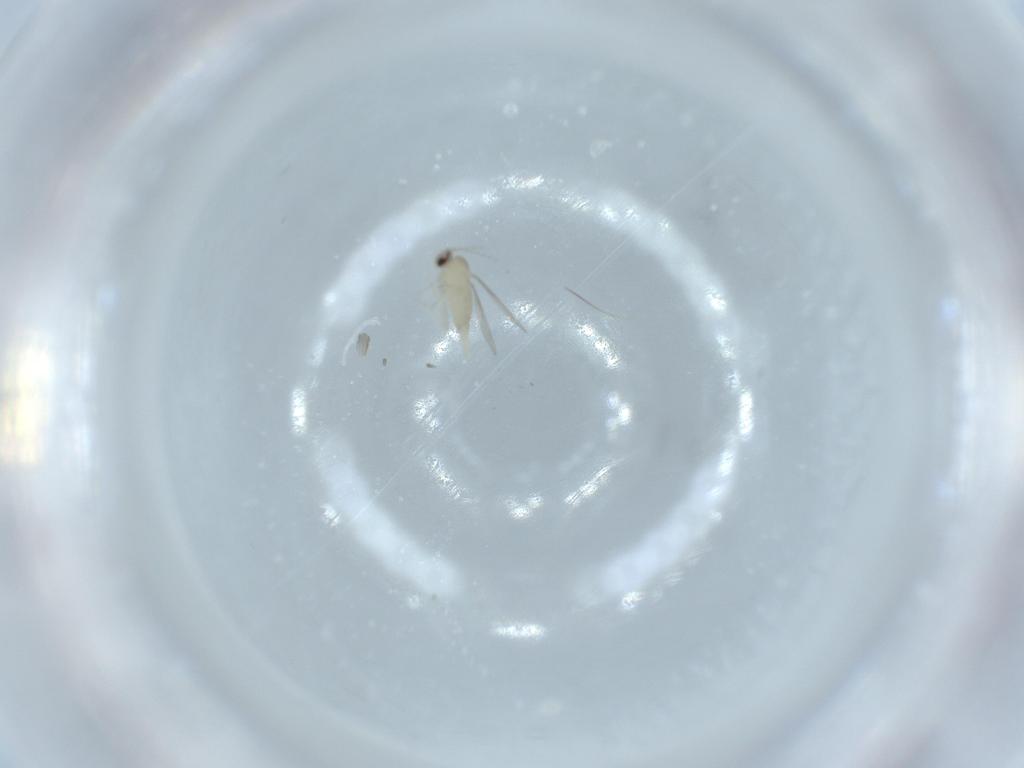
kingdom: Animalia
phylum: Arthropoda
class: Insecta
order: Diptera
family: Cecidomyiidae
